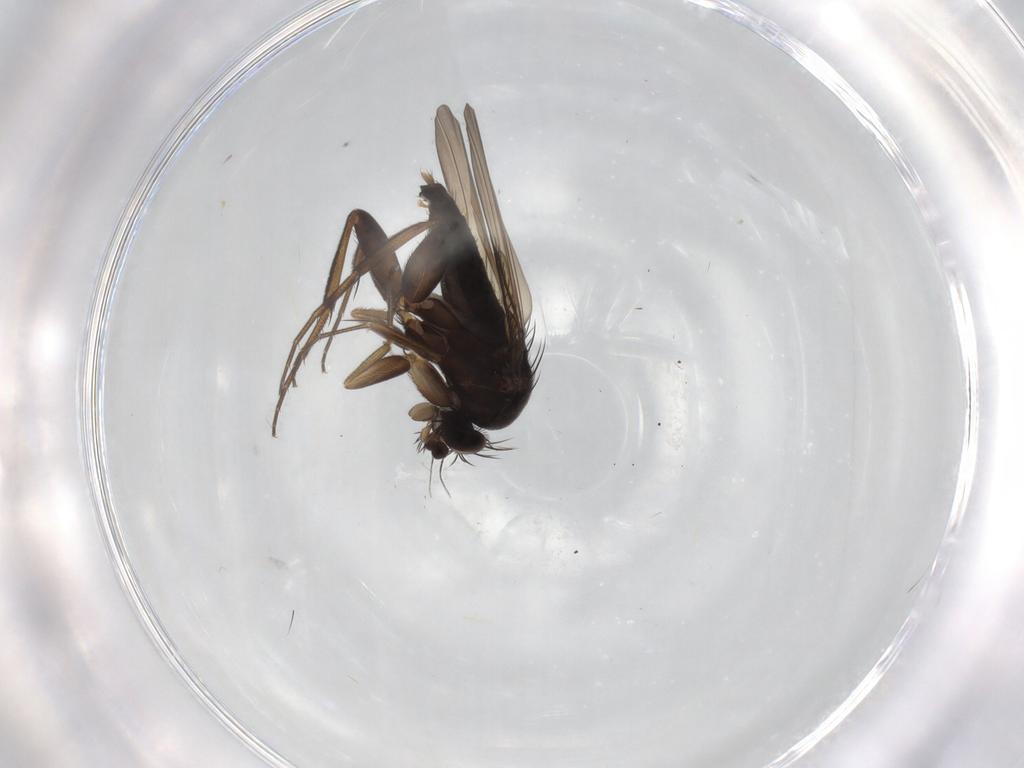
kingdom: Animalia
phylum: Arthropoda
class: Insecta
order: Diptera
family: Phoridae
